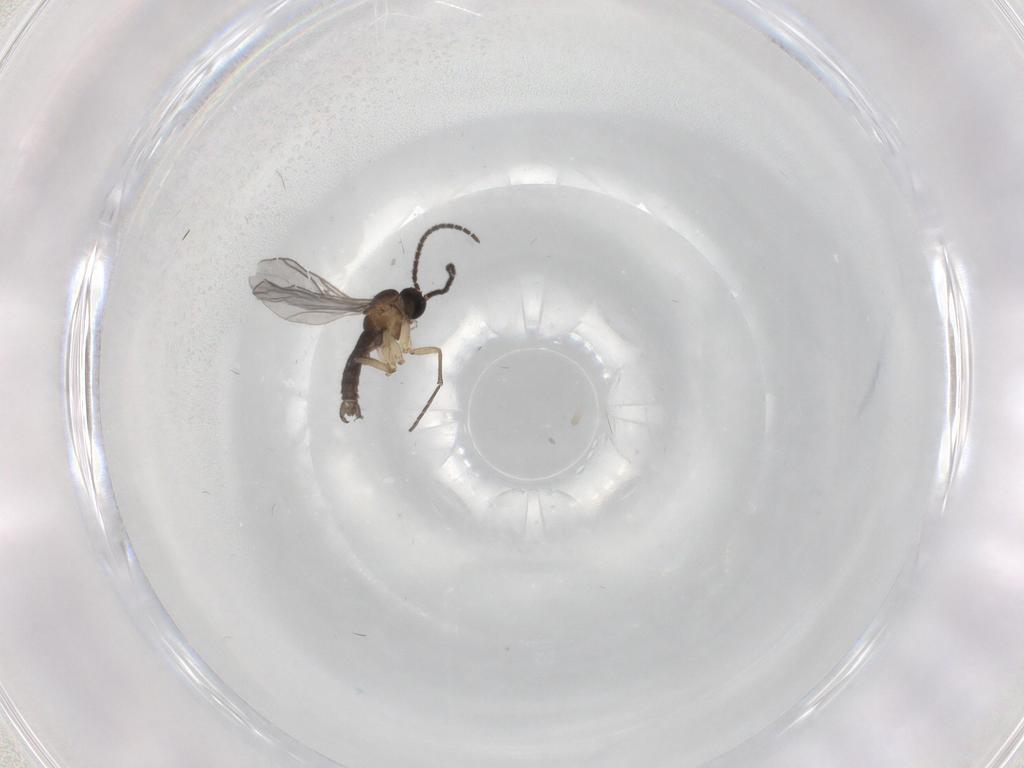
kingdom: Animalia
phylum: Arthropoda
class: Insecta
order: Diptera
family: Sciaridae
